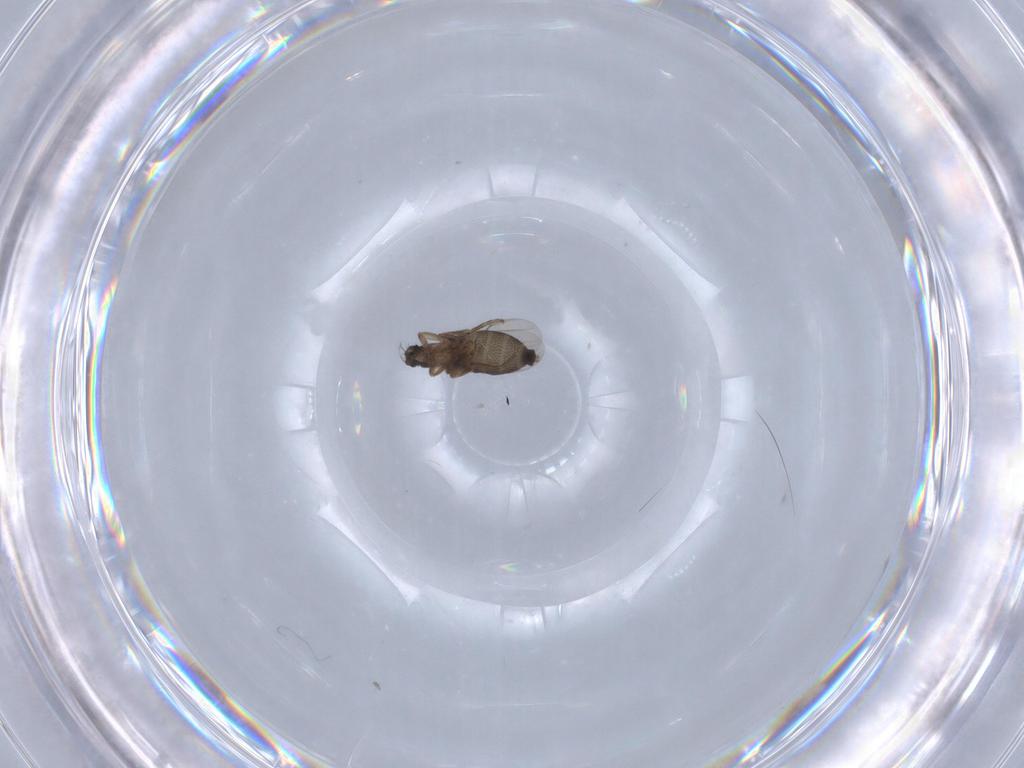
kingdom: Animalia
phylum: Arthropoda
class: Insecta
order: Diptera
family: Phoridae
